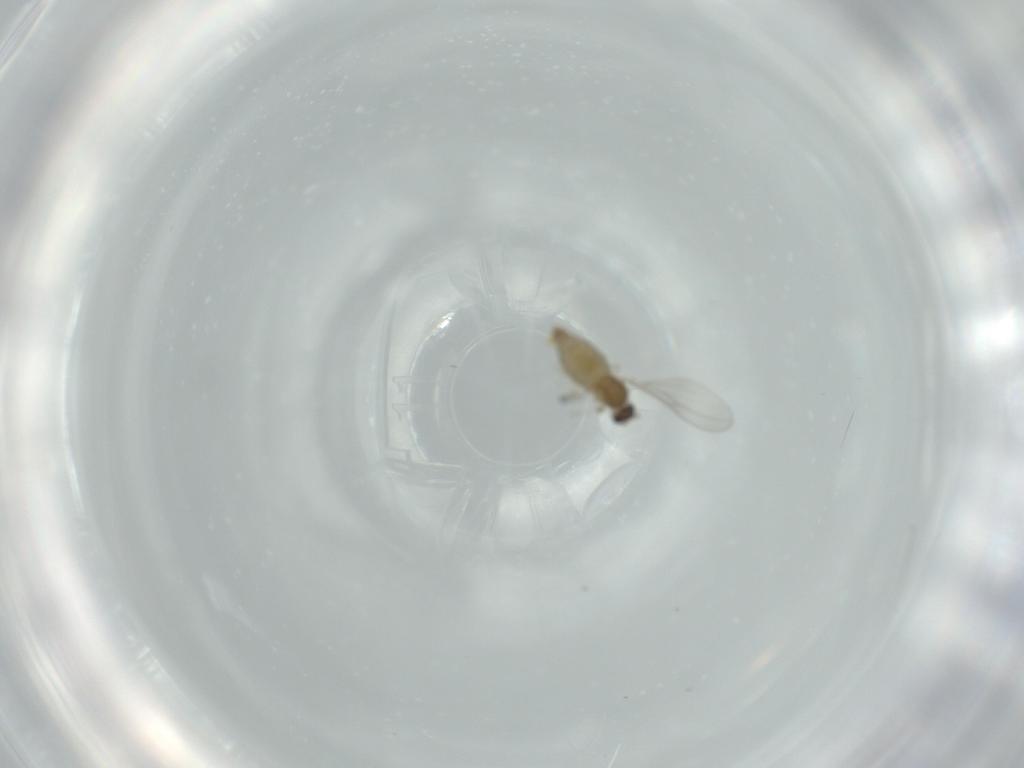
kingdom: Animalia
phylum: Arthropoda
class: Insecta
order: Diptera
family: Cecidomyiidae
